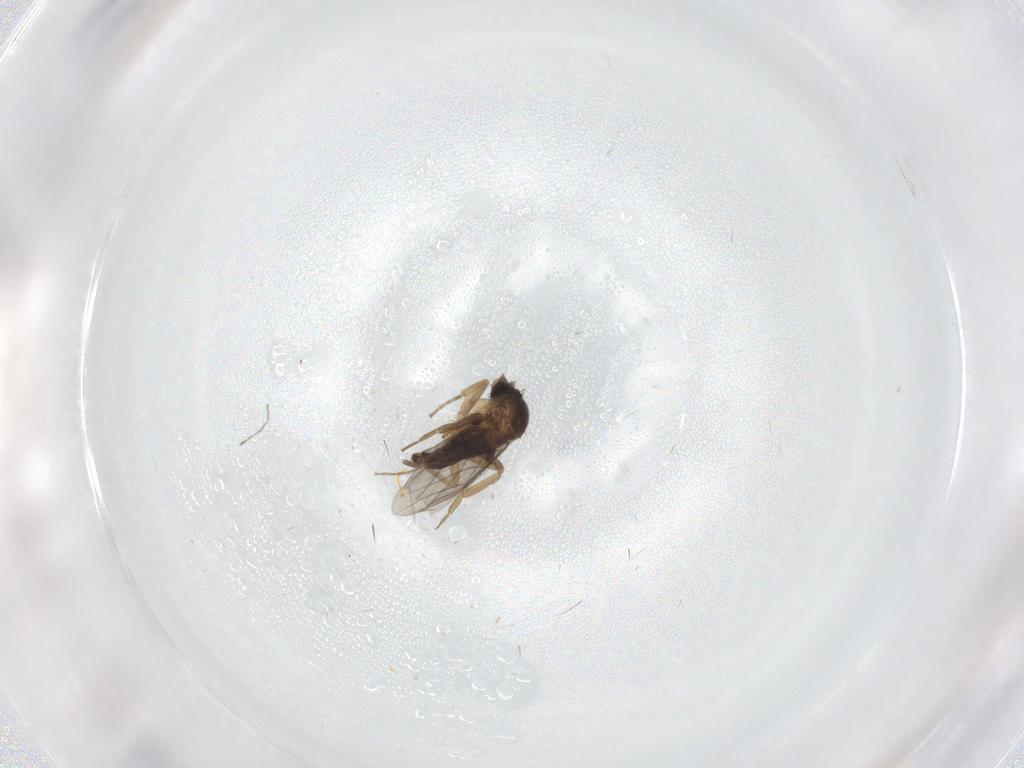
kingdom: Animalia
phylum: Arthropoda
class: Insecta
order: Diptera
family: Phoridae
